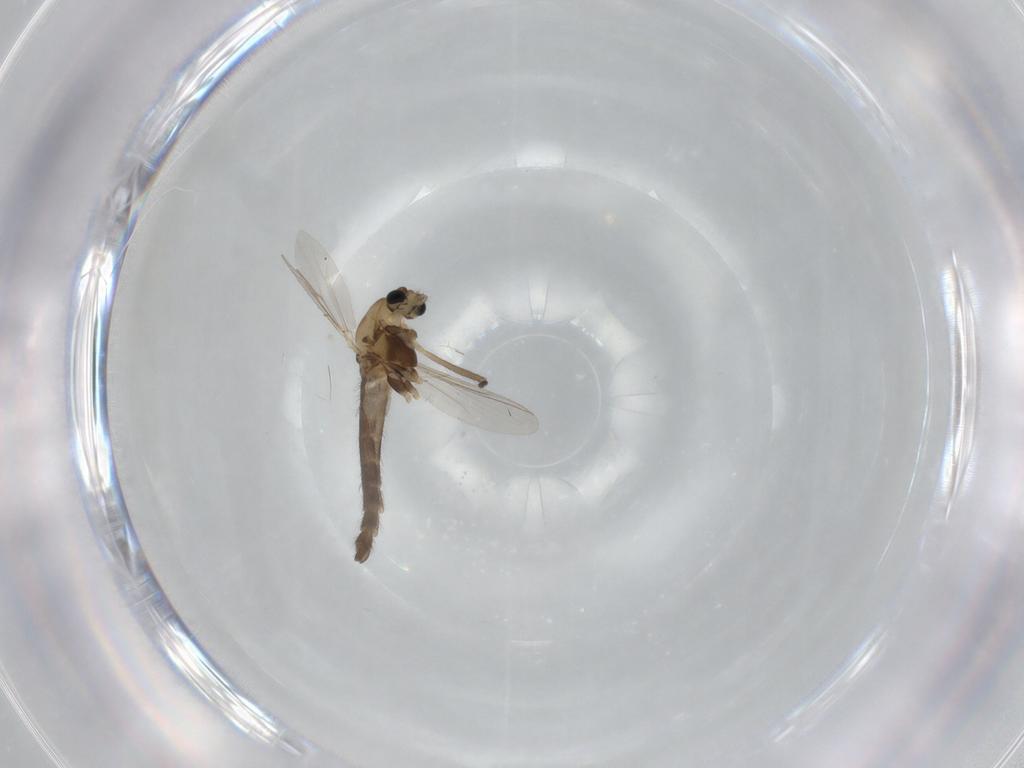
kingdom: Animalia
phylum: Arthropoda
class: Insecta
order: Diptera
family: Chironomidae
